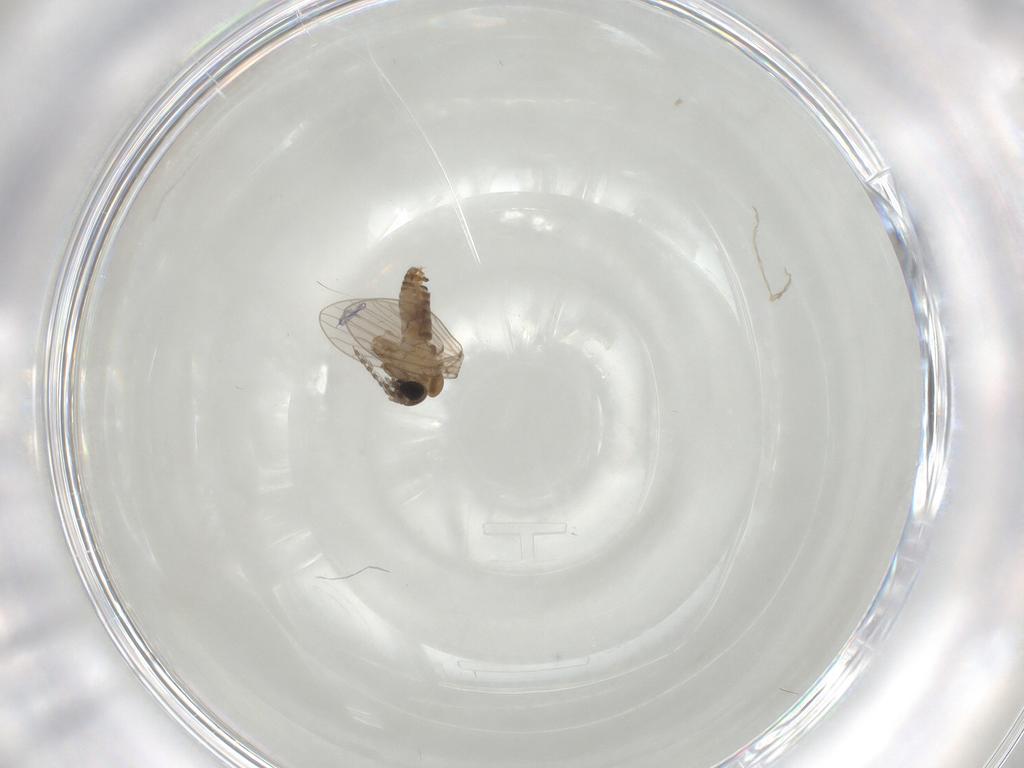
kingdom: Animalia
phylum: Arthropoda
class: Insecta
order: Diptera
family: Psychodidae
